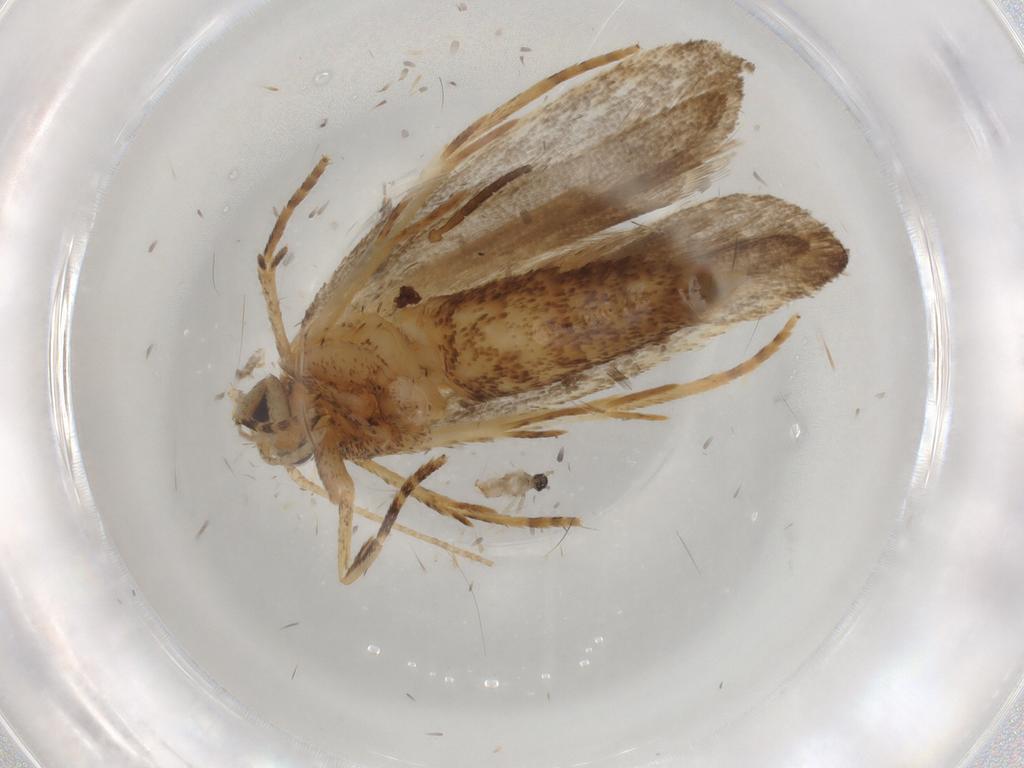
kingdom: Animalia
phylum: Arthropoda
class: Insecta
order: Lepidoptera
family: Autostichidae
